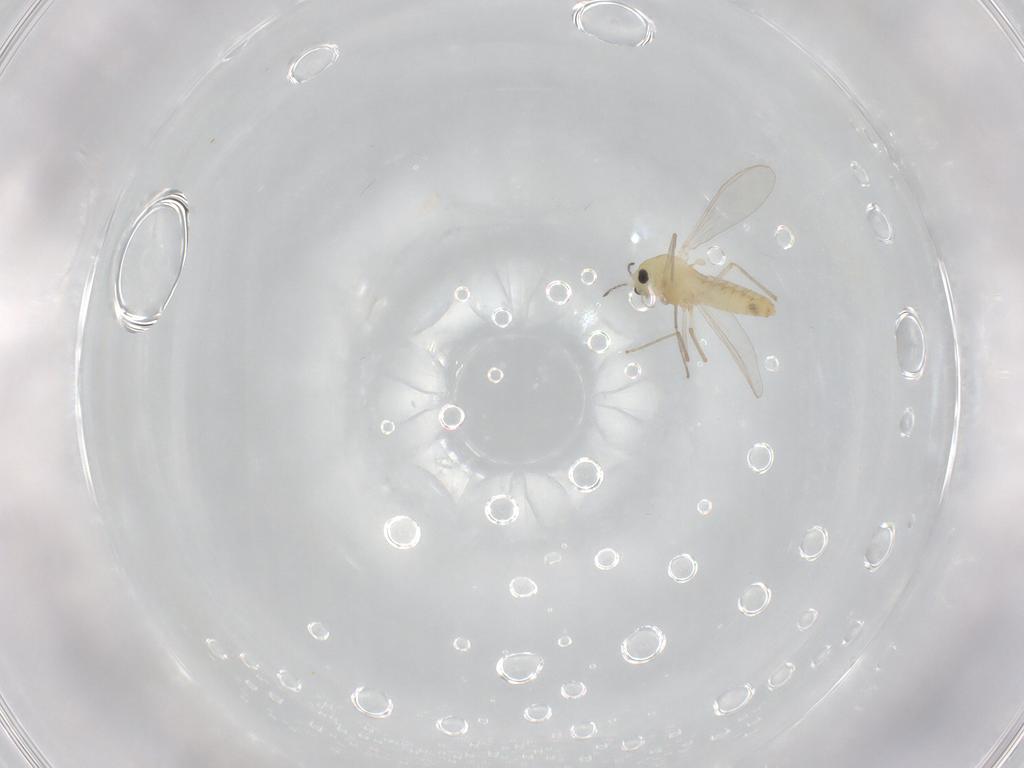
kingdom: Animalia
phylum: Arthropoda
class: Insecta
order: Diptera
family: Chironomidae
